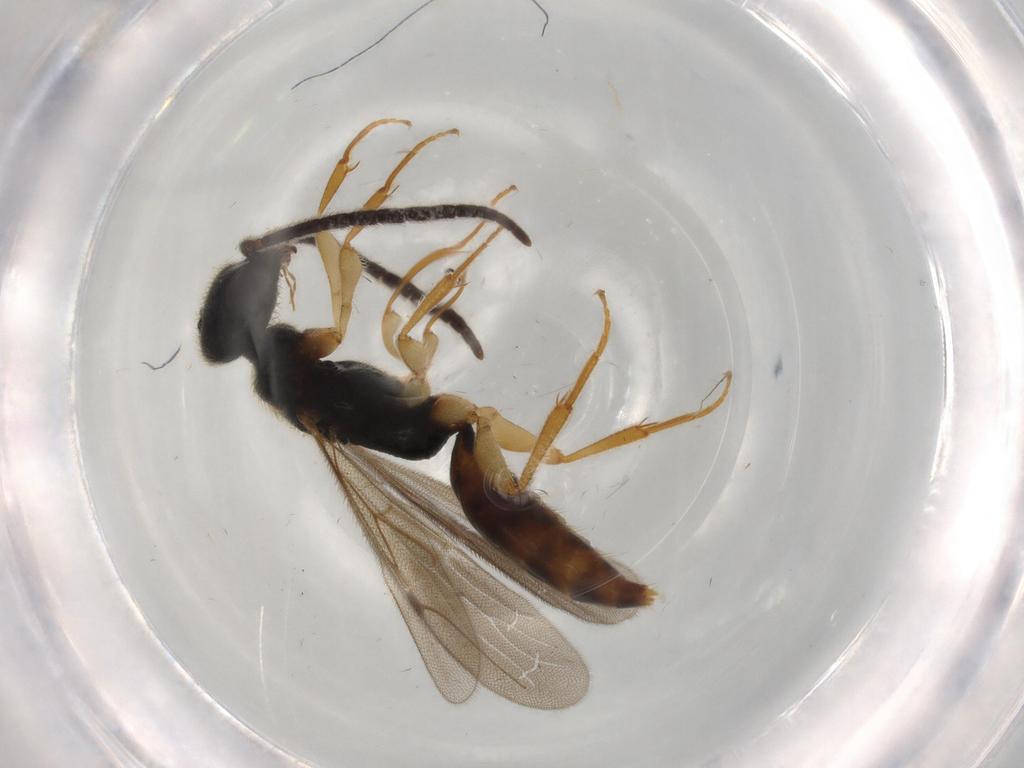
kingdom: Animalia
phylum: Arthropoda
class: Insecta
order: Hymenoptera
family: Bethylidae
